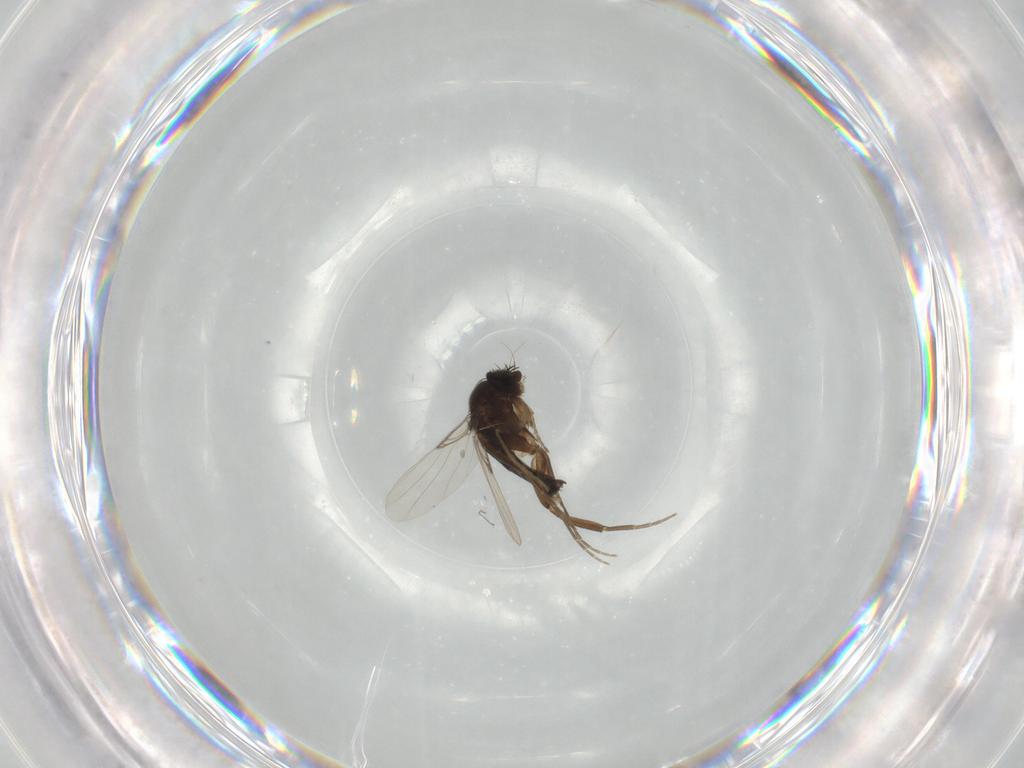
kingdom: Animalia
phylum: Arthropoda
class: Insecta
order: Diptera
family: Phoridae
